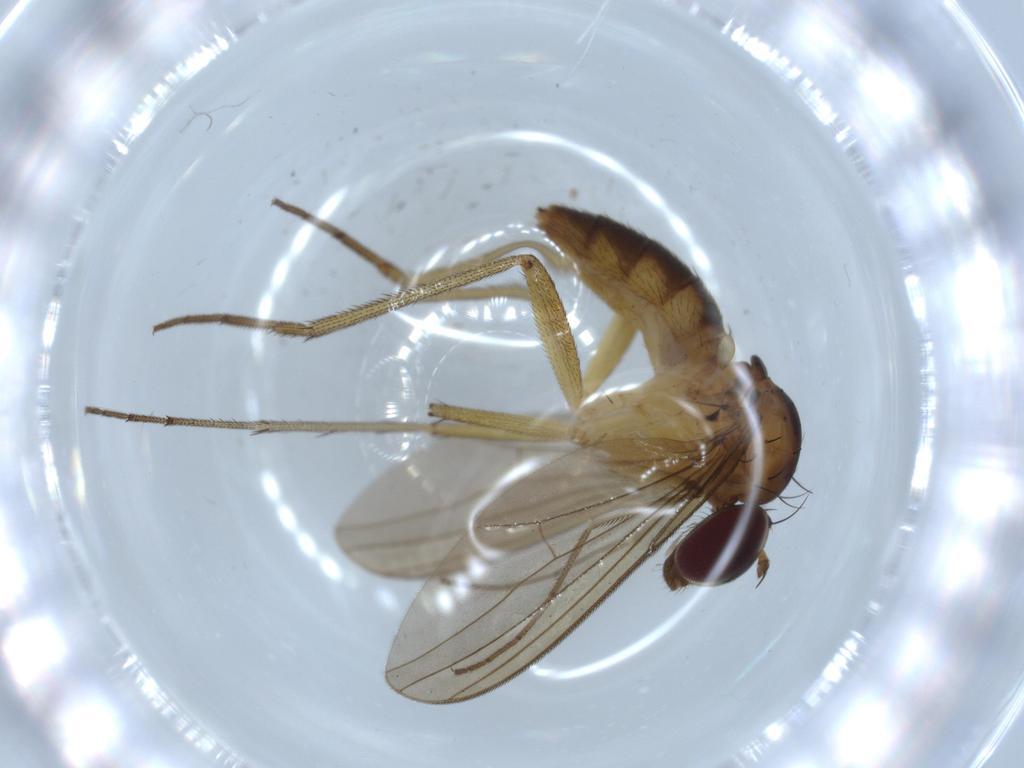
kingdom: Animalia
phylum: Arthropoda
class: Insecta
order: Diptera
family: Dolichopodidae
